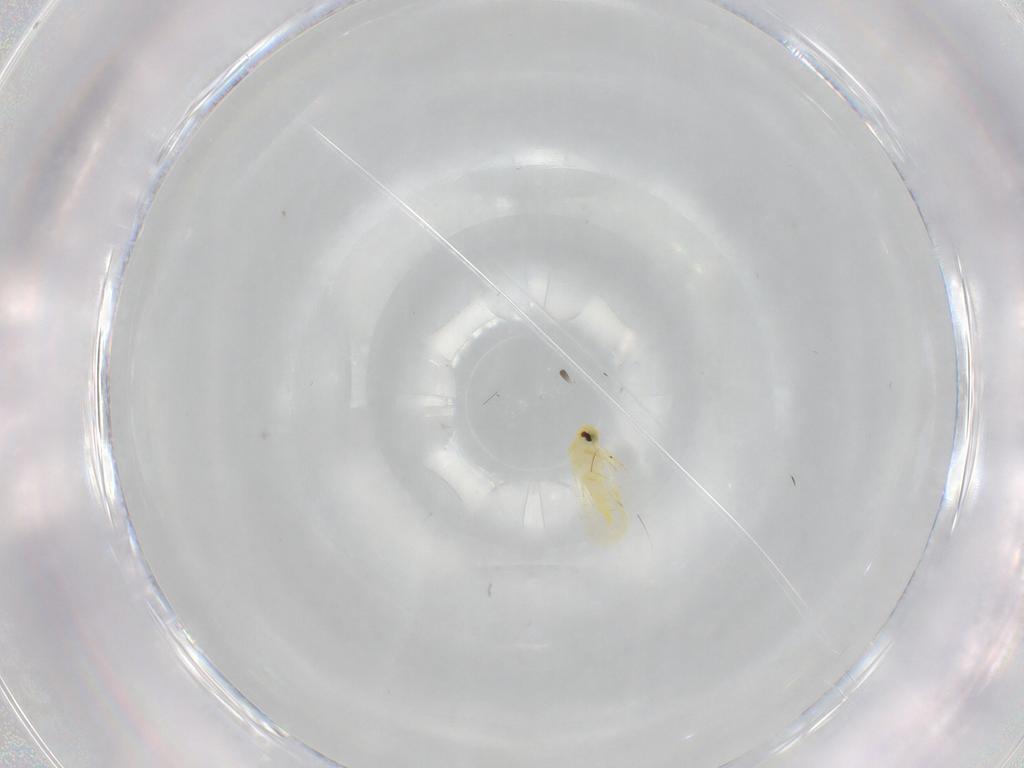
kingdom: Animalia
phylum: Arthropoda
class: Insecta
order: Hemiptera
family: Aleyrodidae
